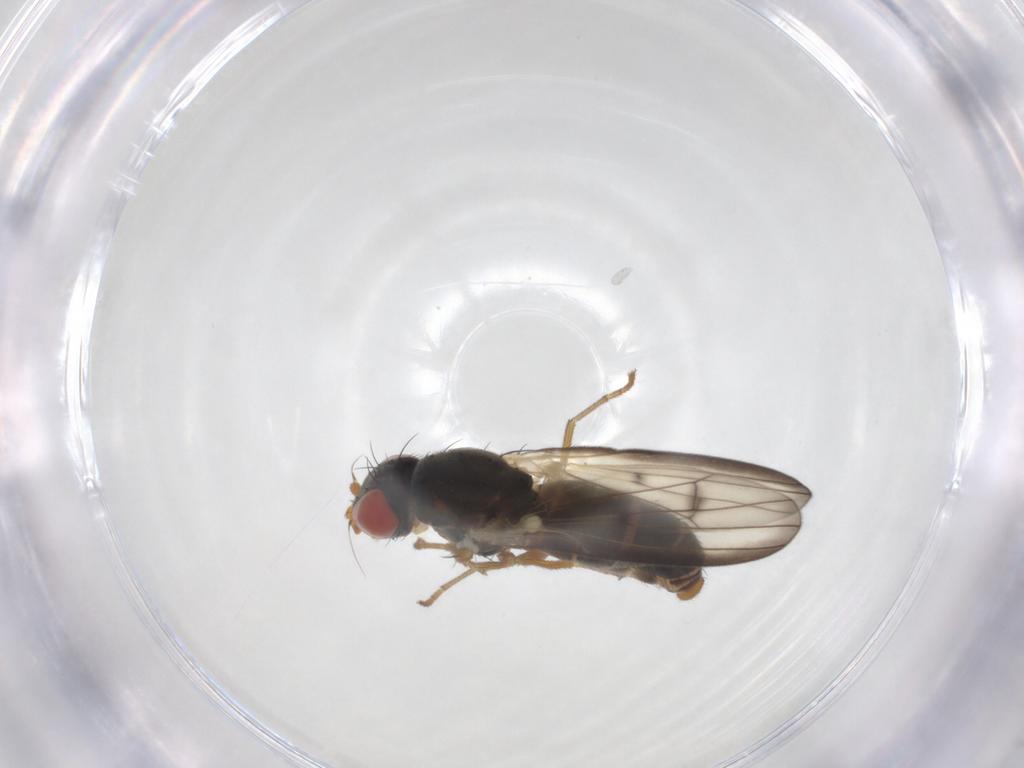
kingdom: Animalia
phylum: Arthropoda
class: Insecta
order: Diptera
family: Chamaemyiidae
